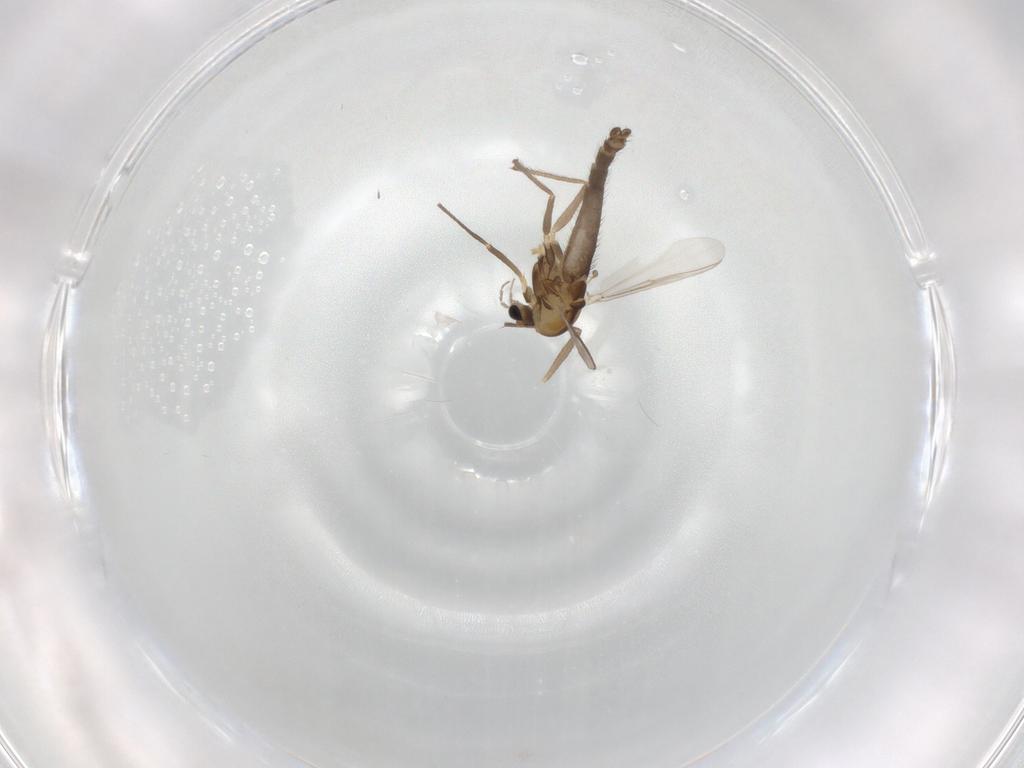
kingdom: Animalia
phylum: Arthropoda
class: Insecta
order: Diptera
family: Chironomidae
